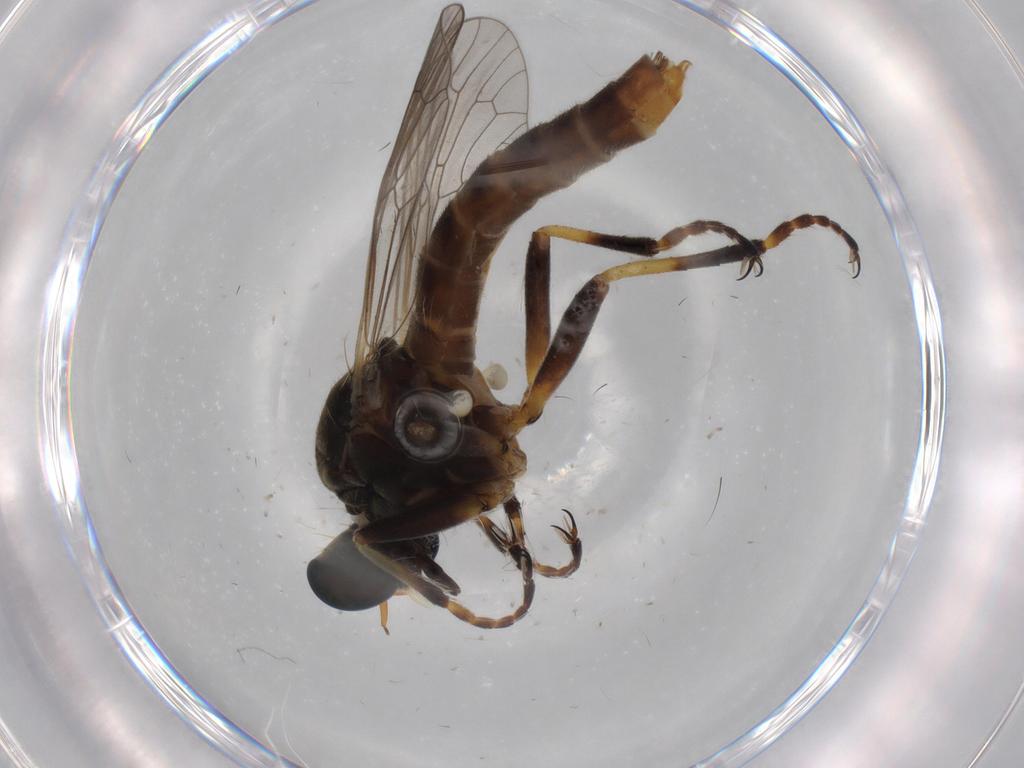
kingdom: Animalia
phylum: Arthropoda
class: Insecta
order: Diptera
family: Asilidae
